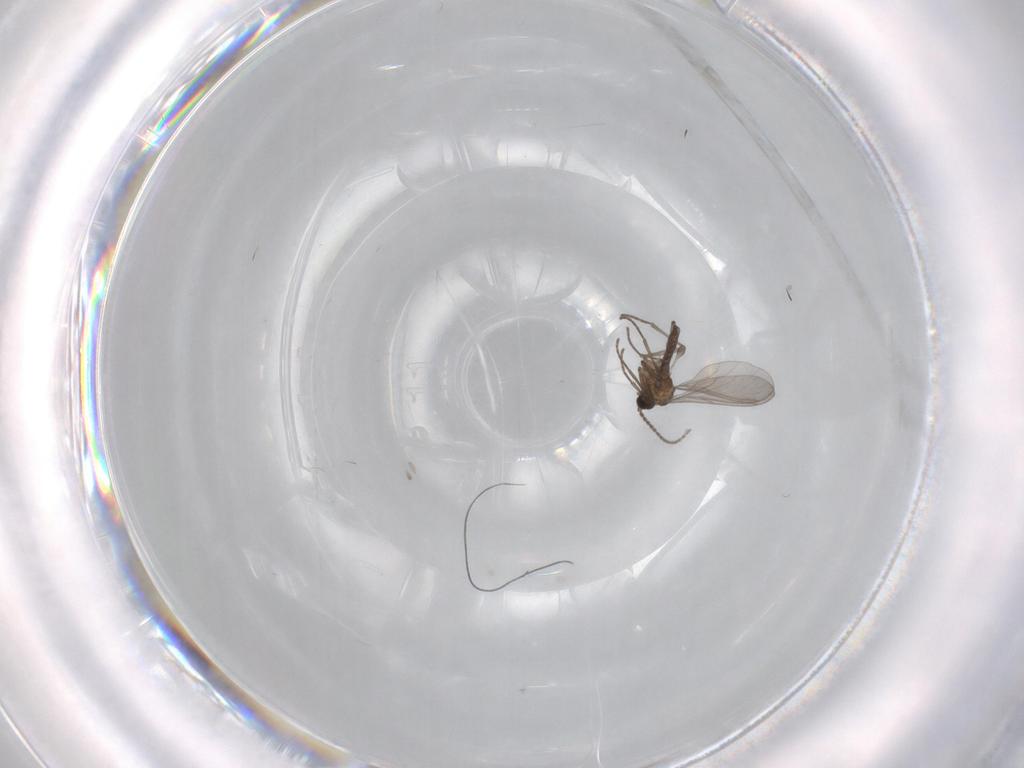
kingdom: Animalia
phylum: Arthropoda
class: Insecta
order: Diptera
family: Sciaridae
